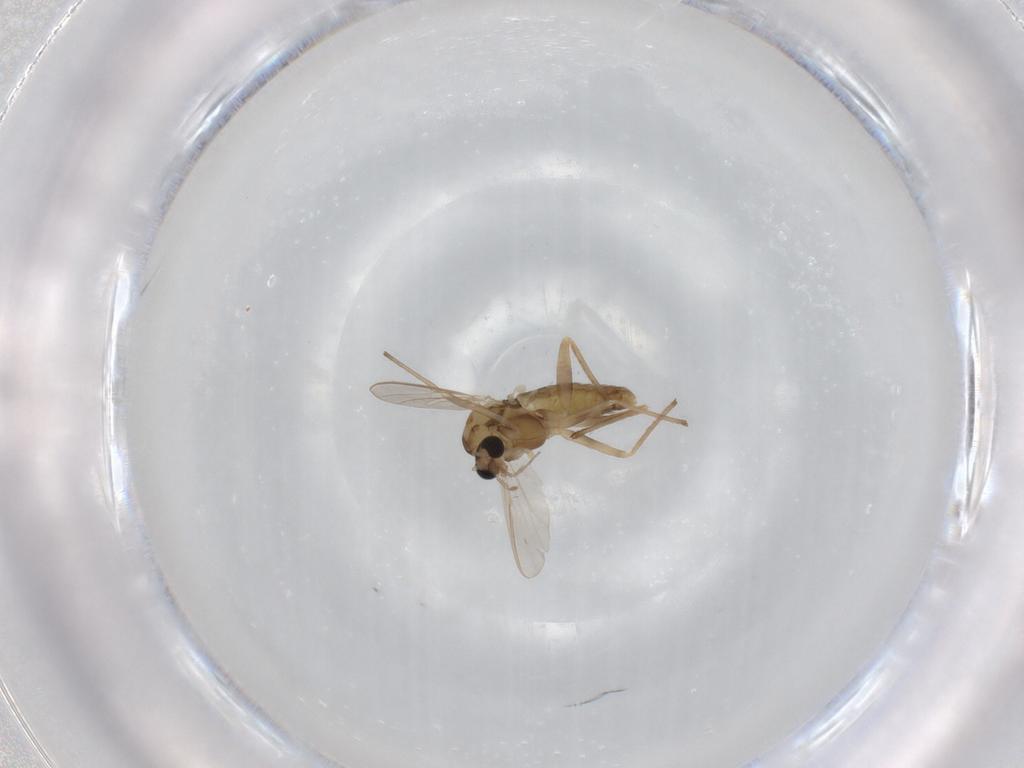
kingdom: Animalia
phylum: Arthropoda
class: Insecta
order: Diptera
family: Chironomidae
